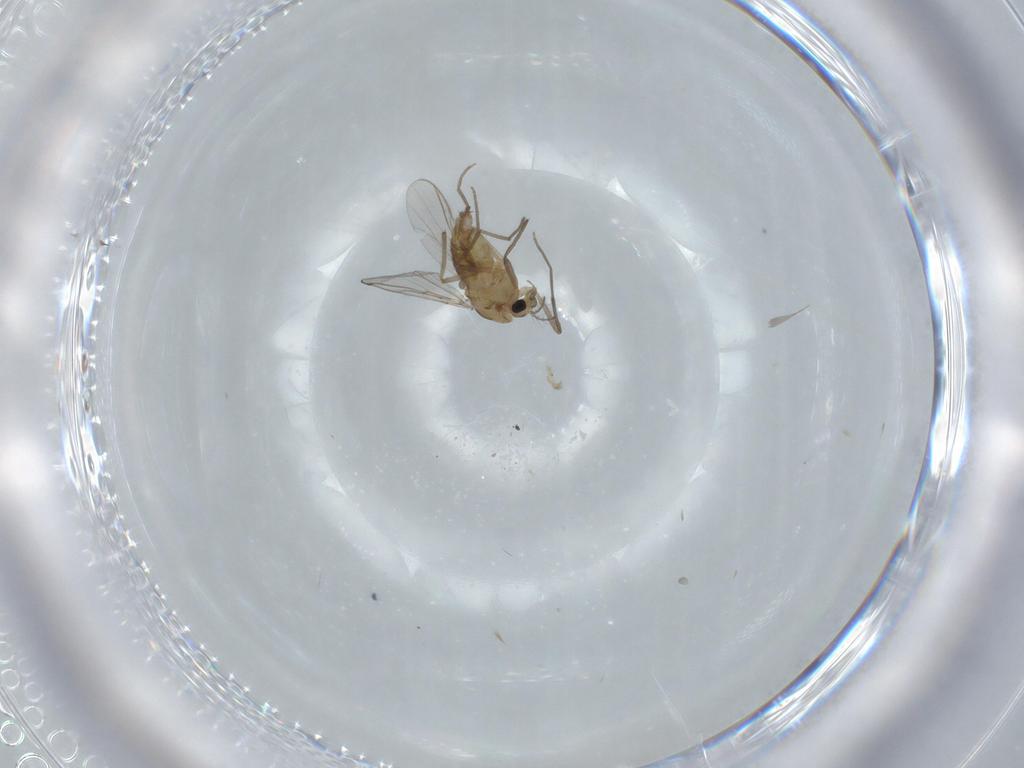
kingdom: Animalia
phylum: Arthropoda
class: Insecta
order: Diptera
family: Chironomidae
